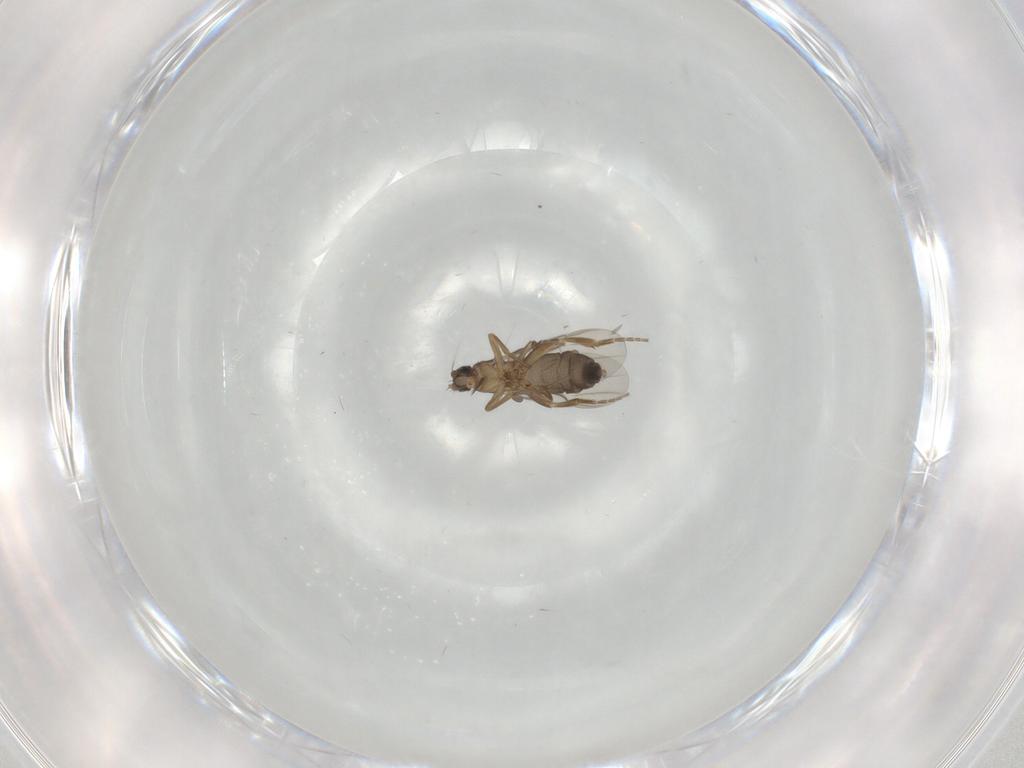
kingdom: Animalia
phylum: Arthropoda
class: Insecta
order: Diptera
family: Phoridae
